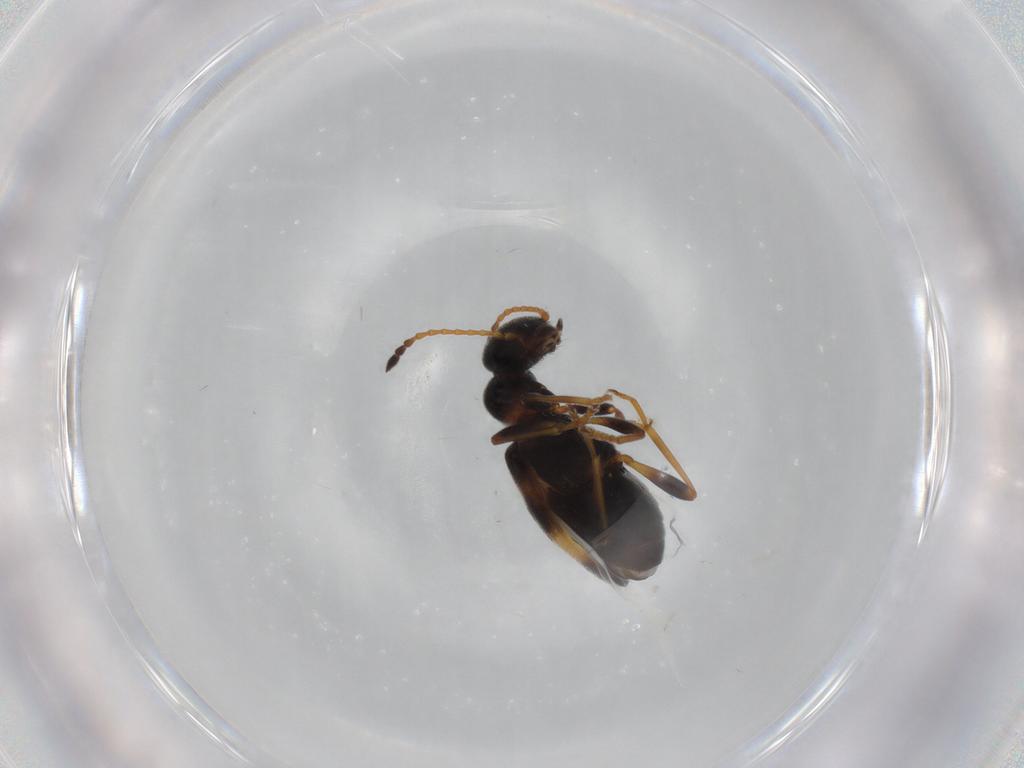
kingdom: Animalia
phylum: Arthropoda
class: Insecta
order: Coleoptera
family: Anthicidae
